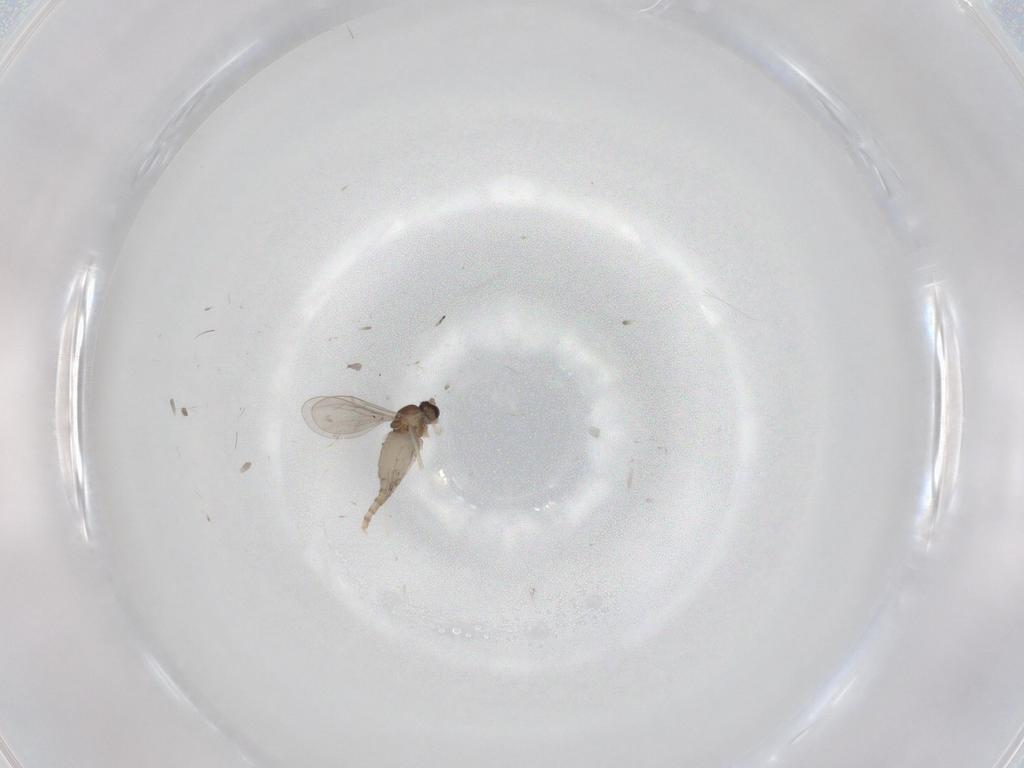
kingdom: Animalia
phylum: Arthropoda
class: Insecta
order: Diptera
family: Cecidomyiidae
